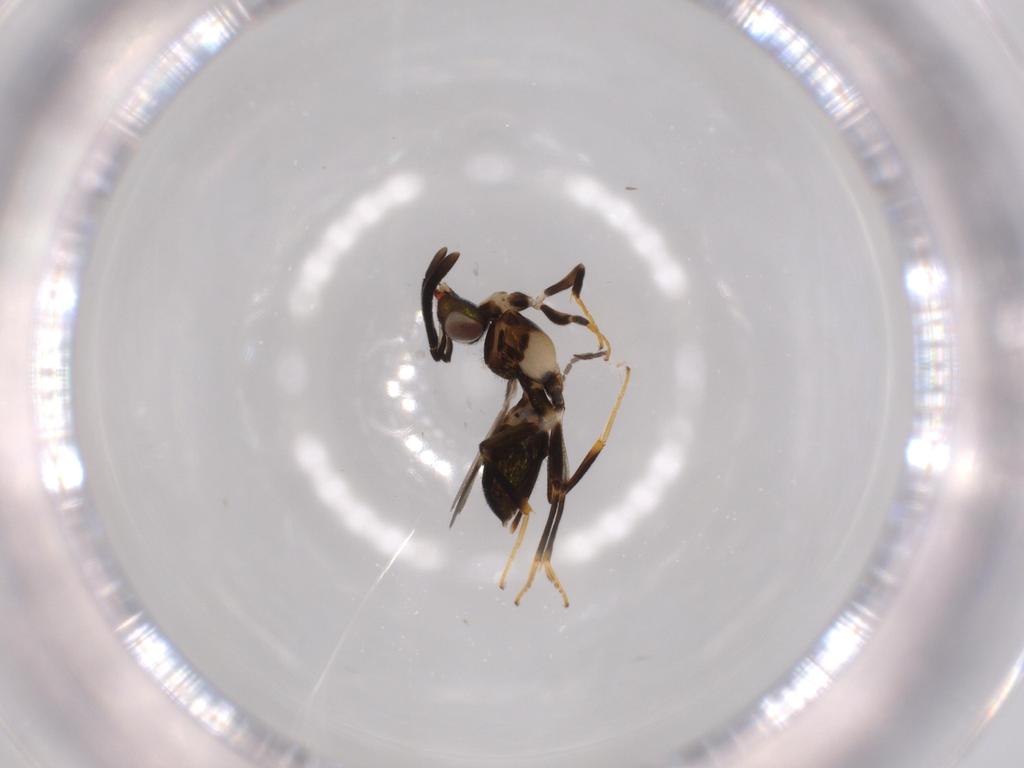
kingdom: Animalia
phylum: Arthropoda
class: Insecta
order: Hymenoptera
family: Eupelmidae
